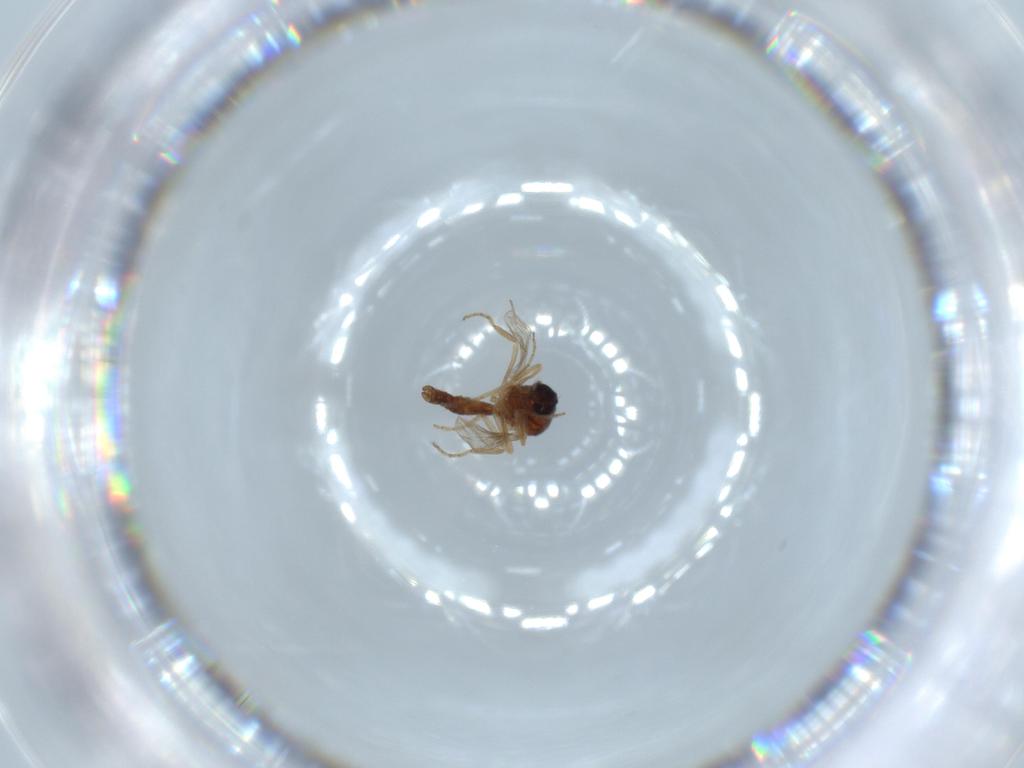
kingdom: Animalia
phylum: Arthropoda
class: Insecta
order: Diptera
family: Ceratopogonidae
